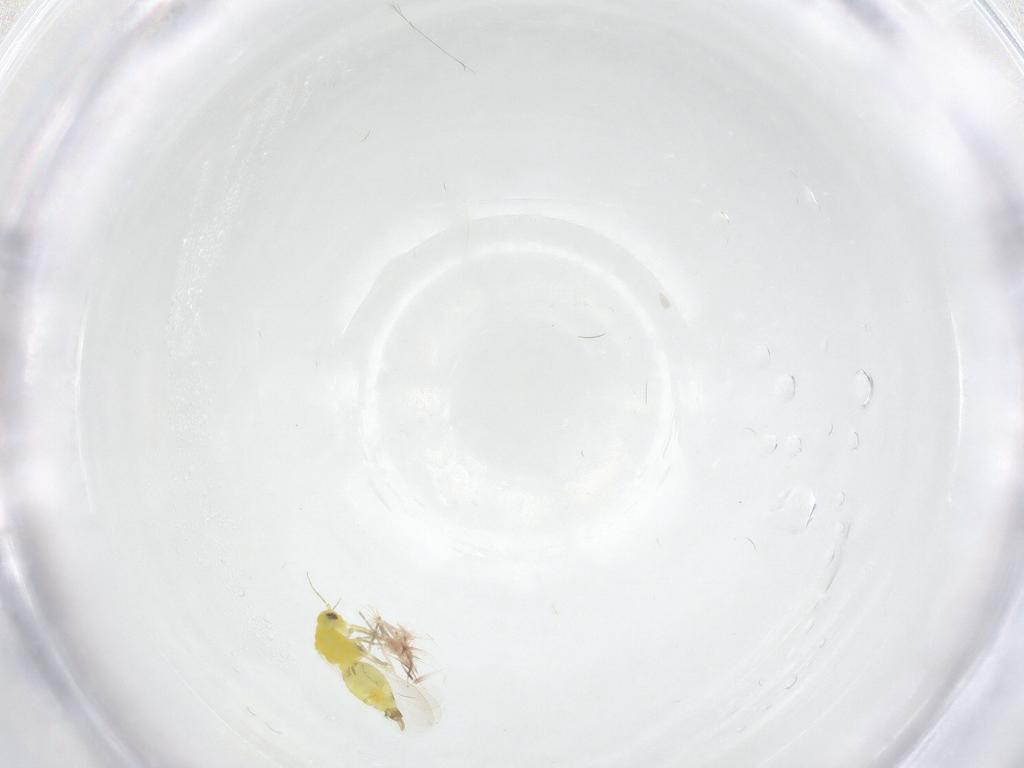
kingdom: Animalia
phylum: Arthropoda
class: Insecta
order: Hemiptera
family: Aleyrodidae
